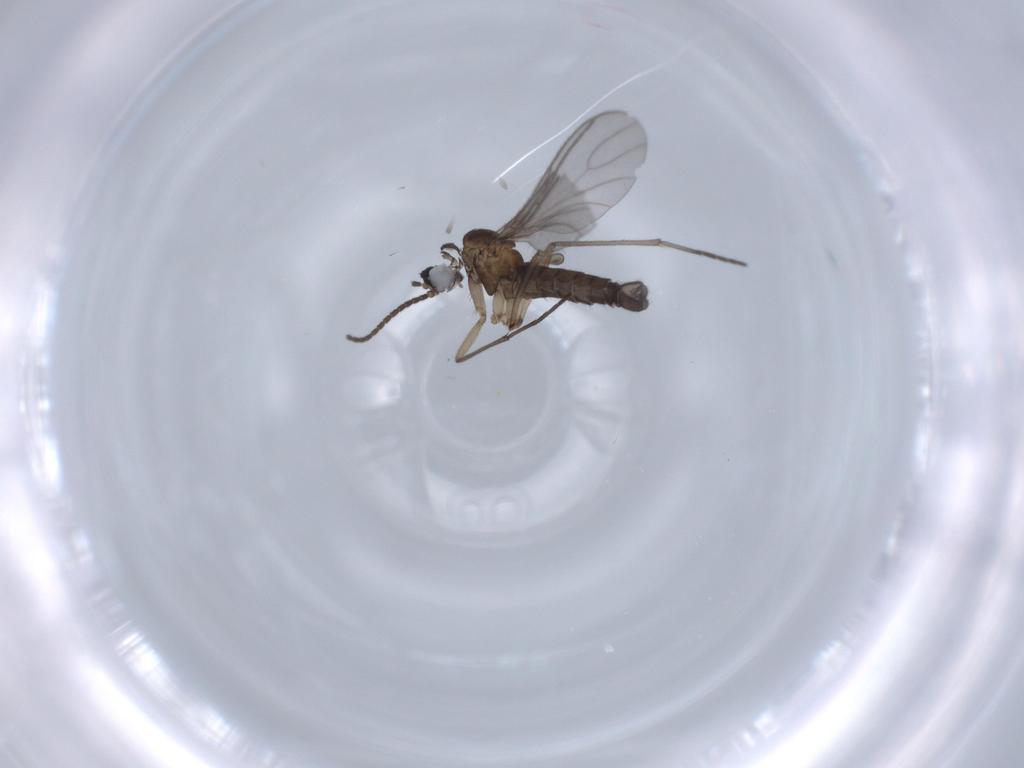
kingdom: Animalia
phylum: Arthropoda
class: Insecta
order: Diptera
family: Sciaridae
